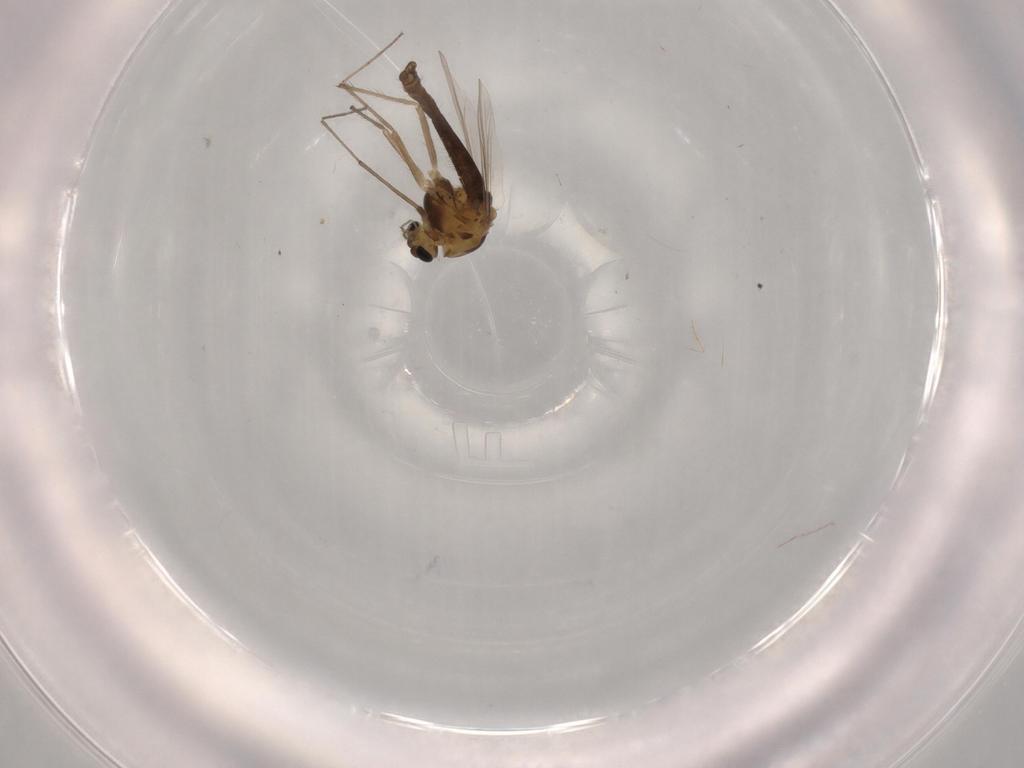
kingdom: Animalia
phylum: Arthropoda
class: Insecta
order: Diptera
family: Chironomidae
